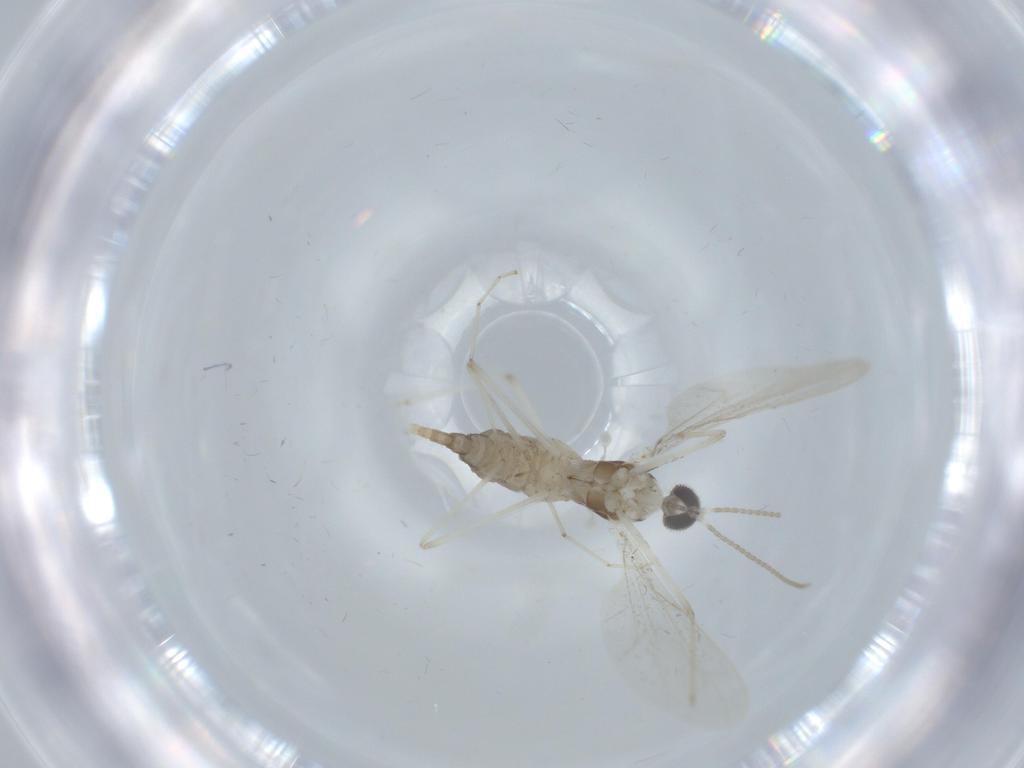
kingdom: Animalia
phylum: Arthropoda
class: Insecta
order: Diptera
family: Cecidomyiidae
